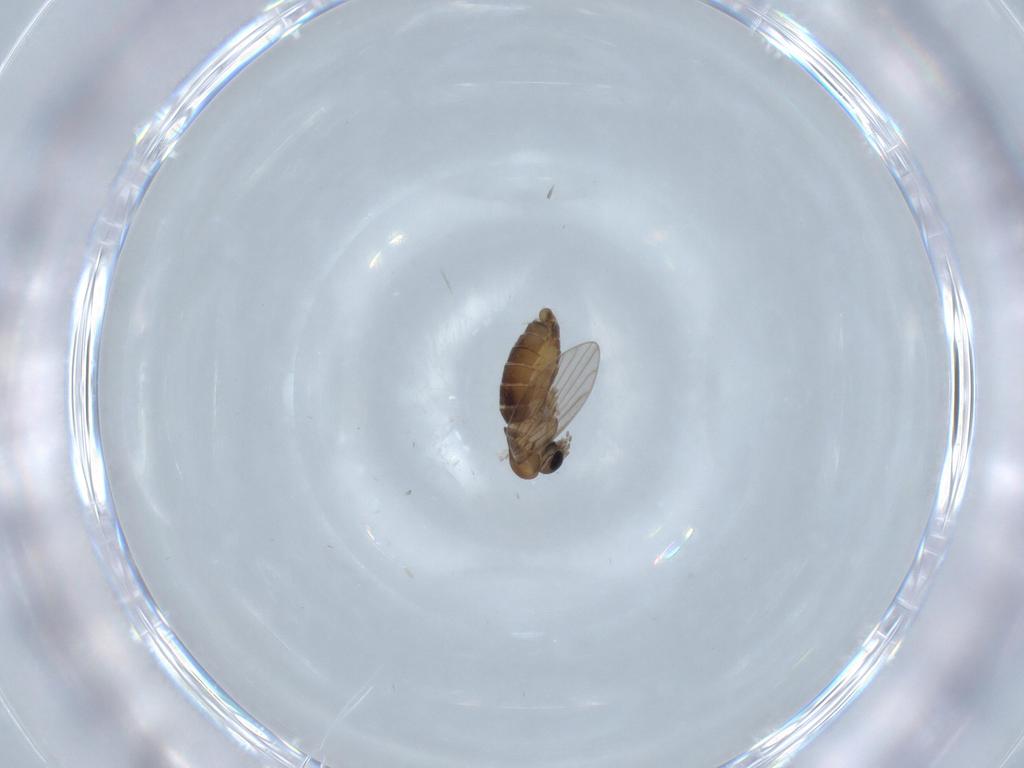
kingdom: Animalia
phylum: Arthropoda
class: Insecta
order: Diptera
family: Psychodidae
